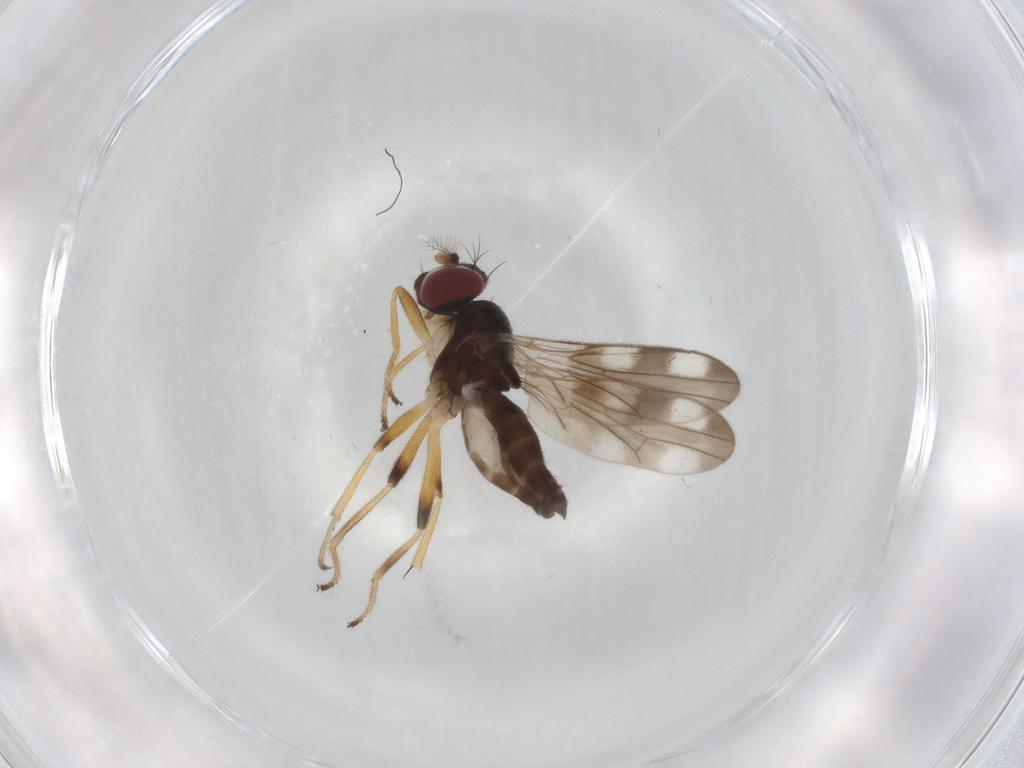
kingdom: Animalia
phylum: Arthropoda
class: Insecta
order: Diptera
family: Periscelididae
